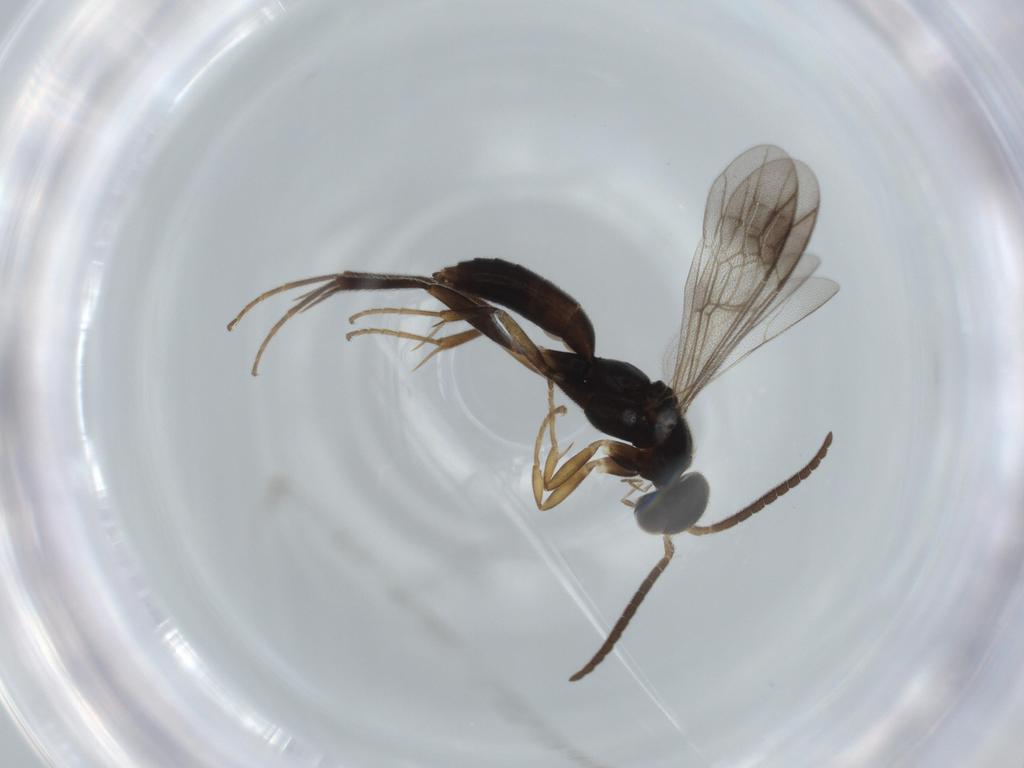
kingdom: Animalia
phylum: Arthropoda
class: Insecta
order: Hymenoptera
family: Pompilidae
